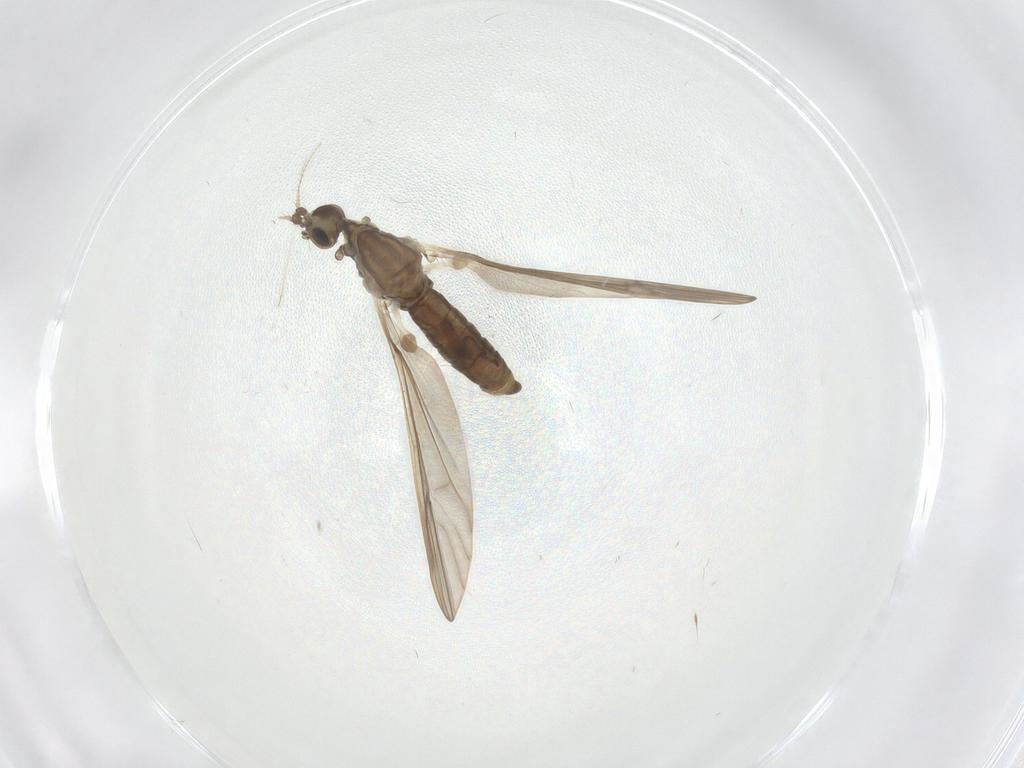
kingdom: Animalia
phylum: Arthropoda
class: Insecta
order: Diptera
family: Limoniidae
